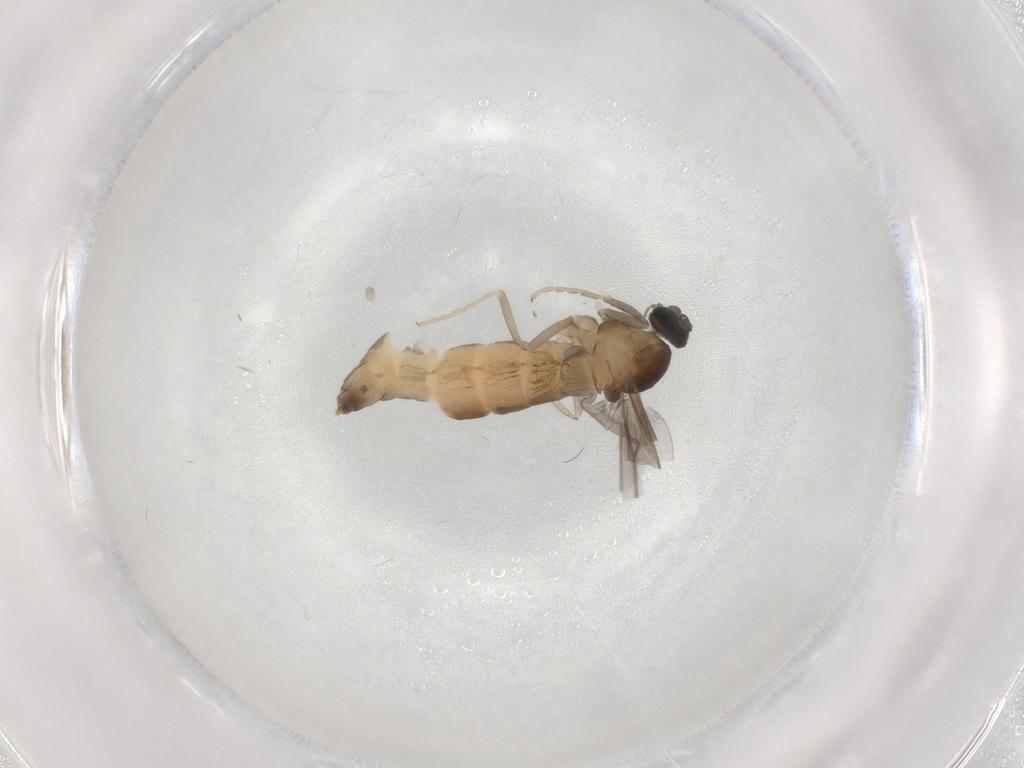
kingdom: Animalia
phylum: Arthropoda
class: Insecta
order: Diptera
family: Cecidomyiidae
